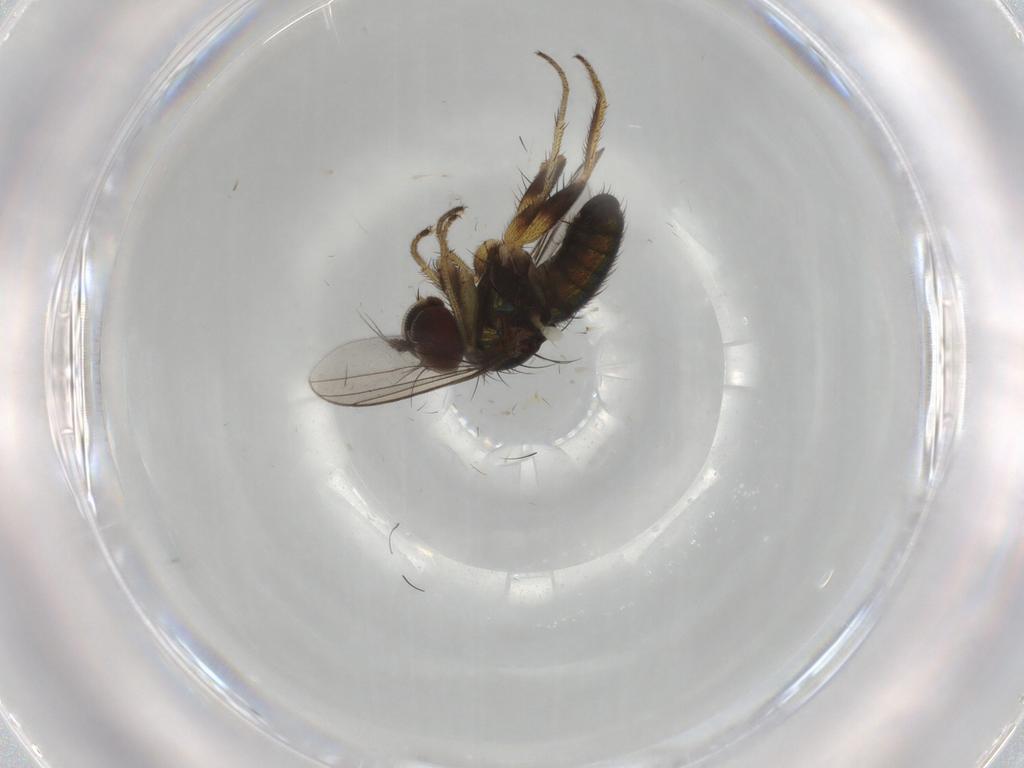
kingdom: Animalia
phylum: Arthropoda
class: Insecta
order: Diptera
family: Dolichopodidae
